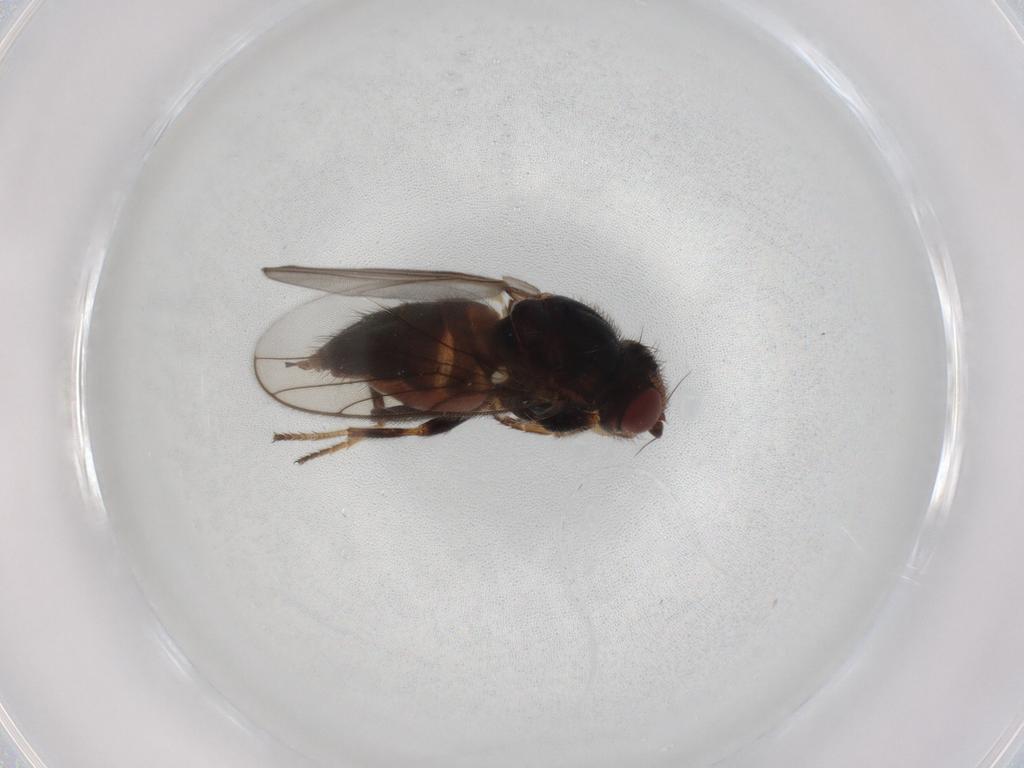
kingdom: Animalia
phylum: Arthropoda
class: Insecta
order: Diptera
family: Chloropidae
